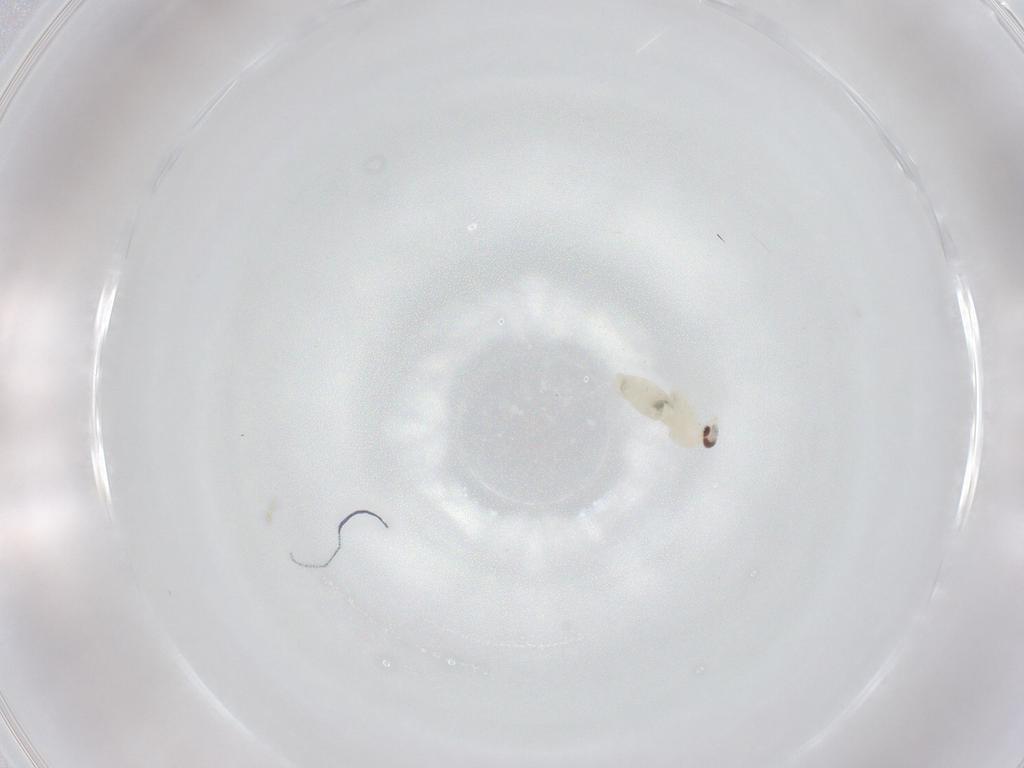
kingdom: Animalia
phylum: Arthropoda
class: Insecta
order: Diptera
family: Cecidomyiidae
